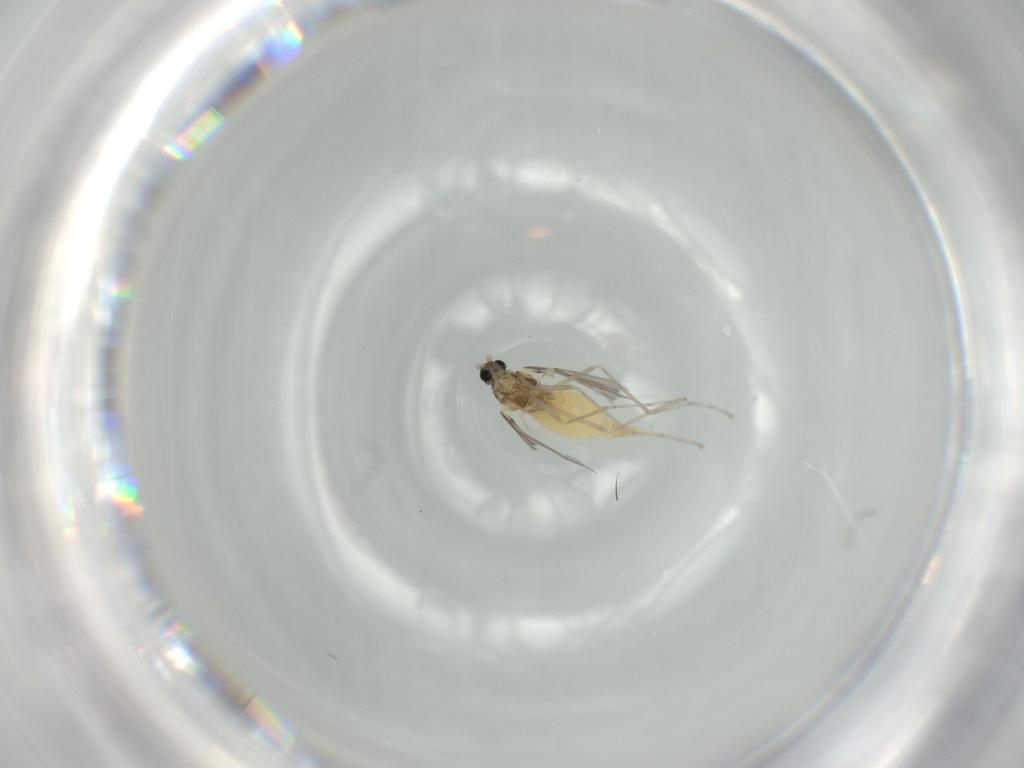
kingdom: Animalia
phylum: Arthropoda
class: Insecta
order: Diptera
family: Cecidomyiidae
